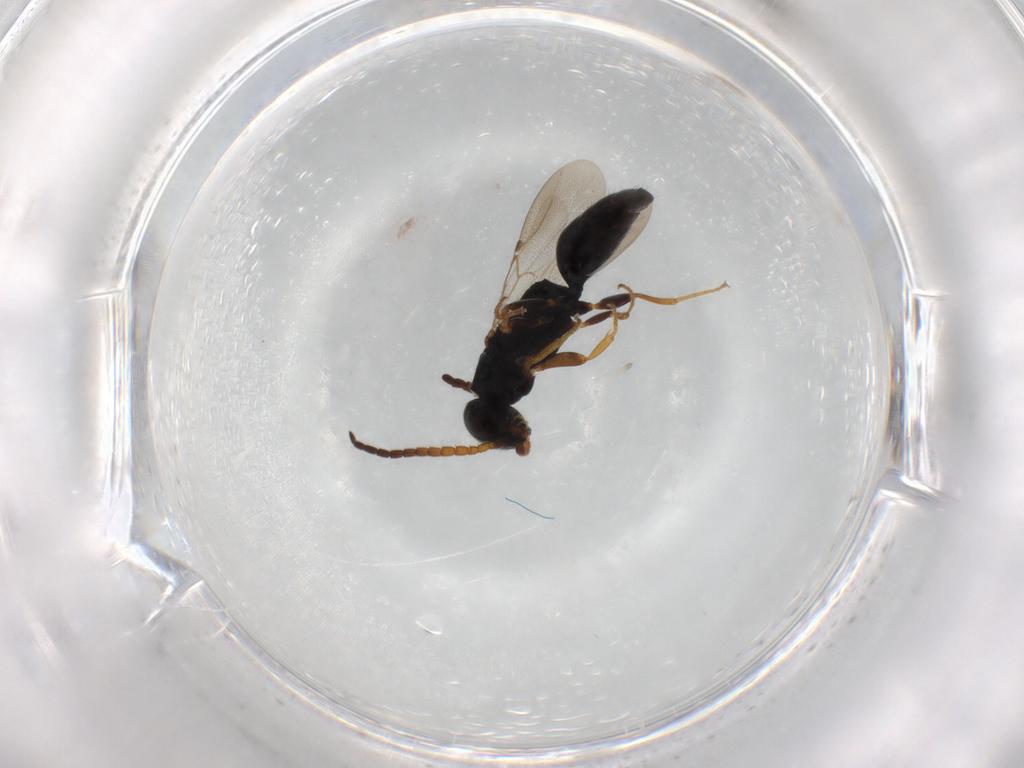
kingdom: Animalia
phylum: Arthropoda
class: Insecta
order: Hymenoptera
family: Bethylidae
